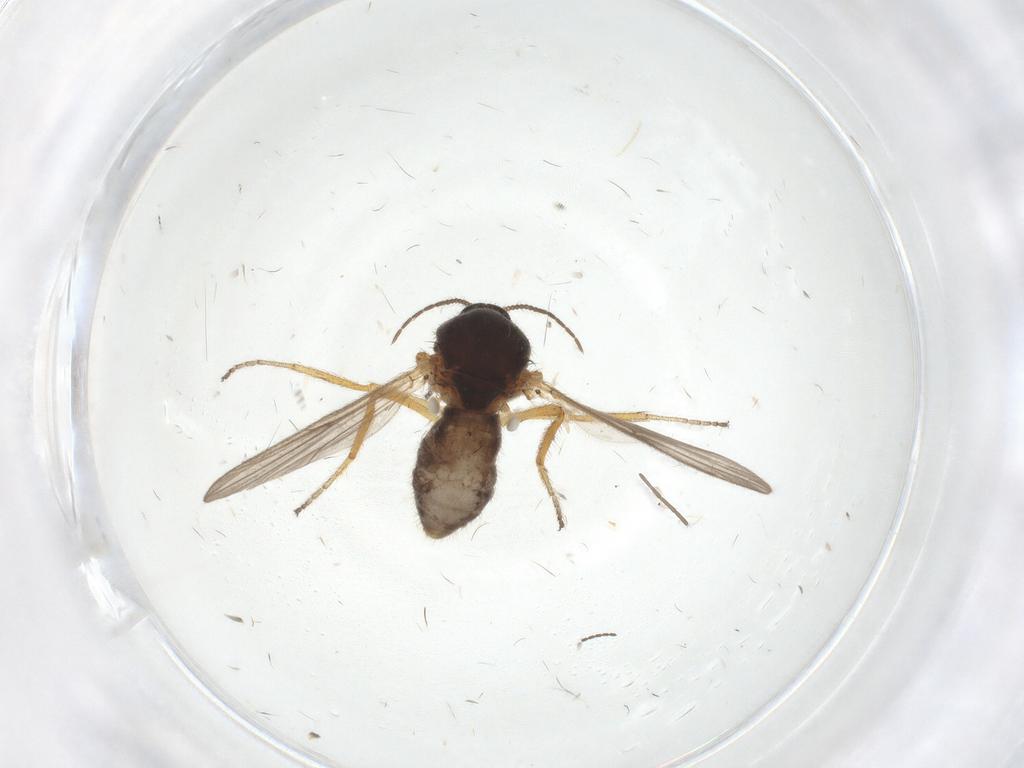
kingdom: Animalia
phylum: Arthropoda
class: Insecta
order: Diptera
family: Ceratopogonidae
